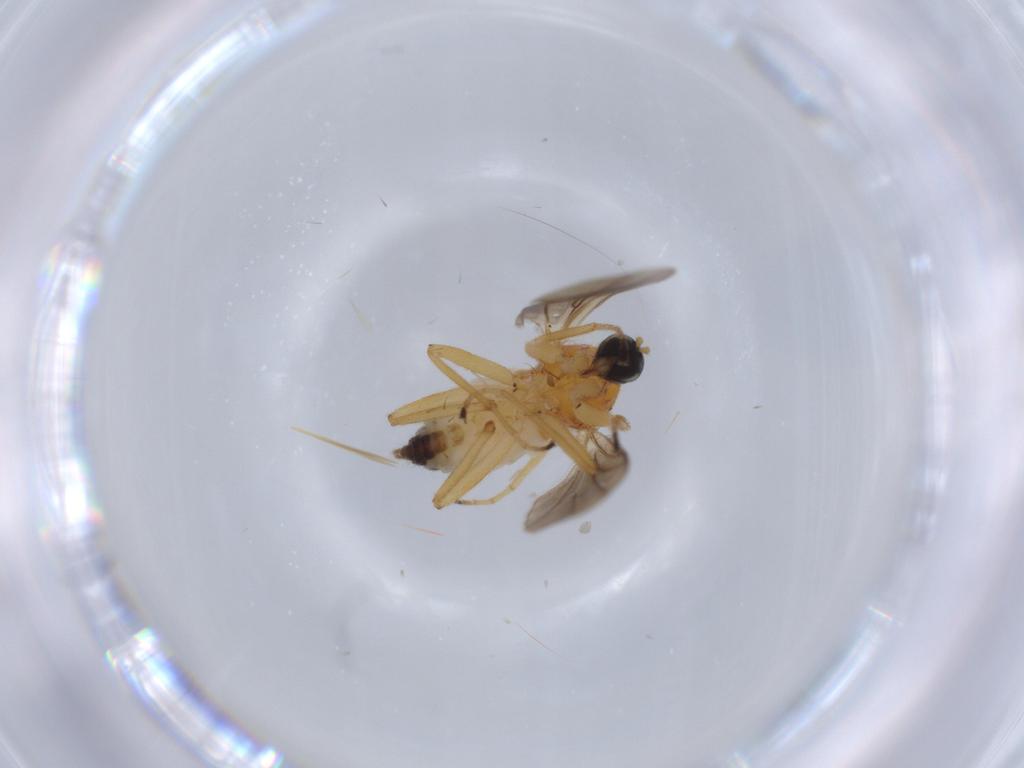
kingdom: Animalia
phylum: Arthropoda
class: Insecta
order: Diptera
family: Hybotidae
